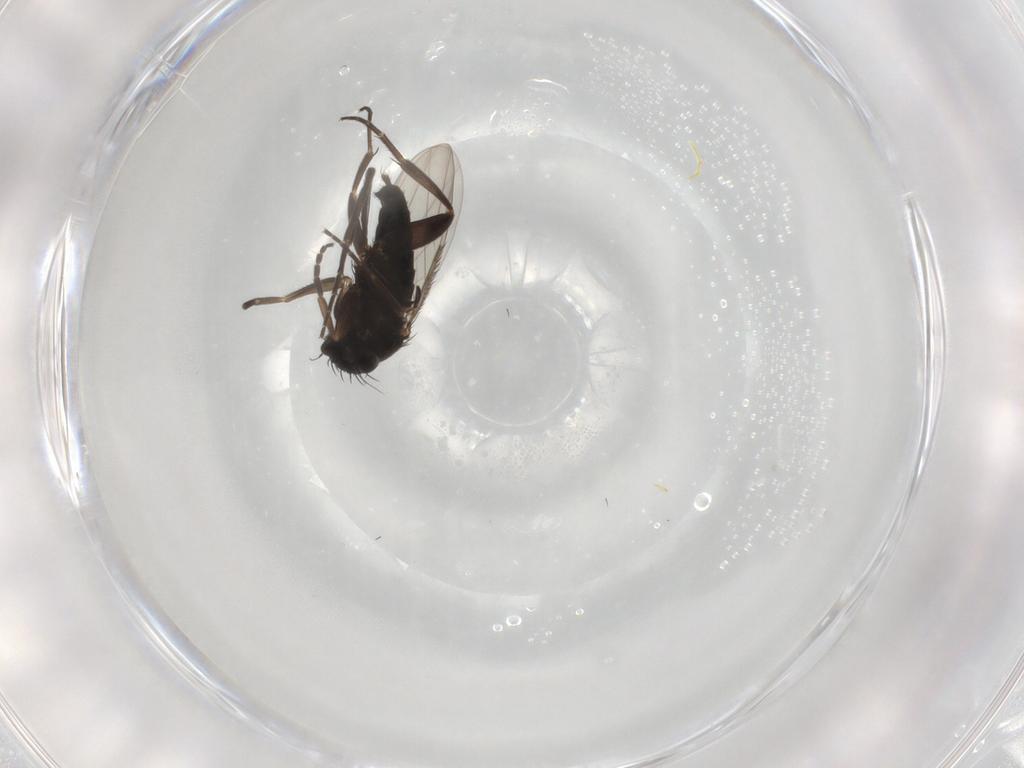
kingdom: Animalia
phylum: Arthropoda
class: Insecta
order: Diptera
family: Phoridae
